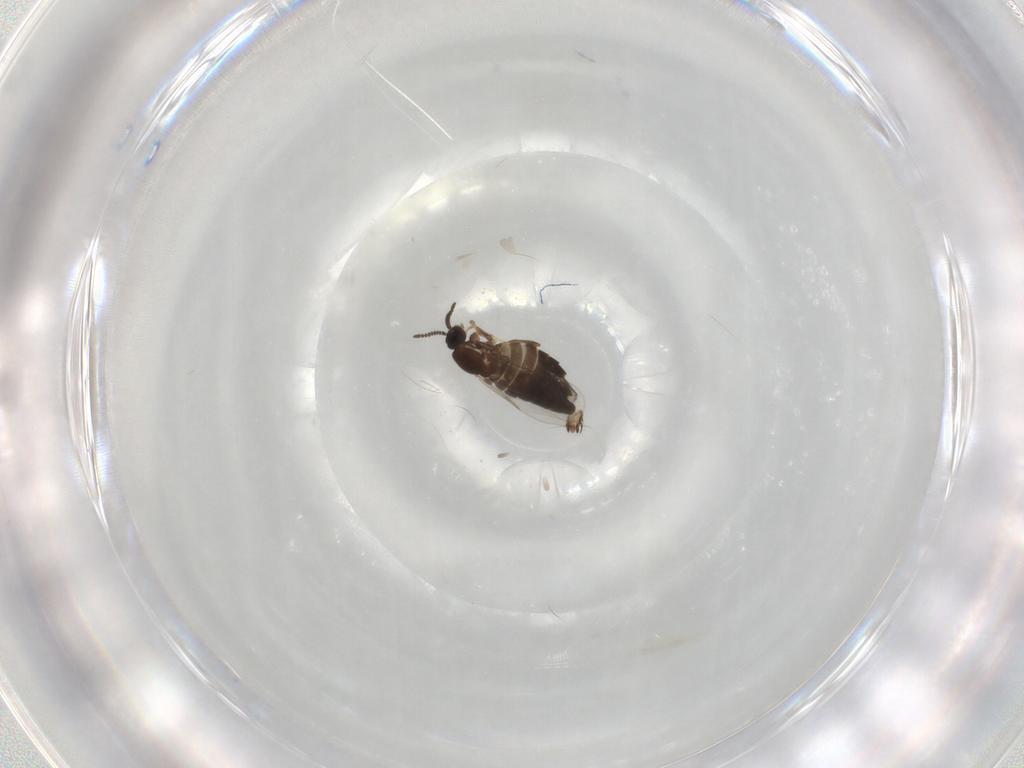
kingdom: Animalia
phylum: Arthropoda
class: Insecta
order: Diptera
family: Scatopsidae
